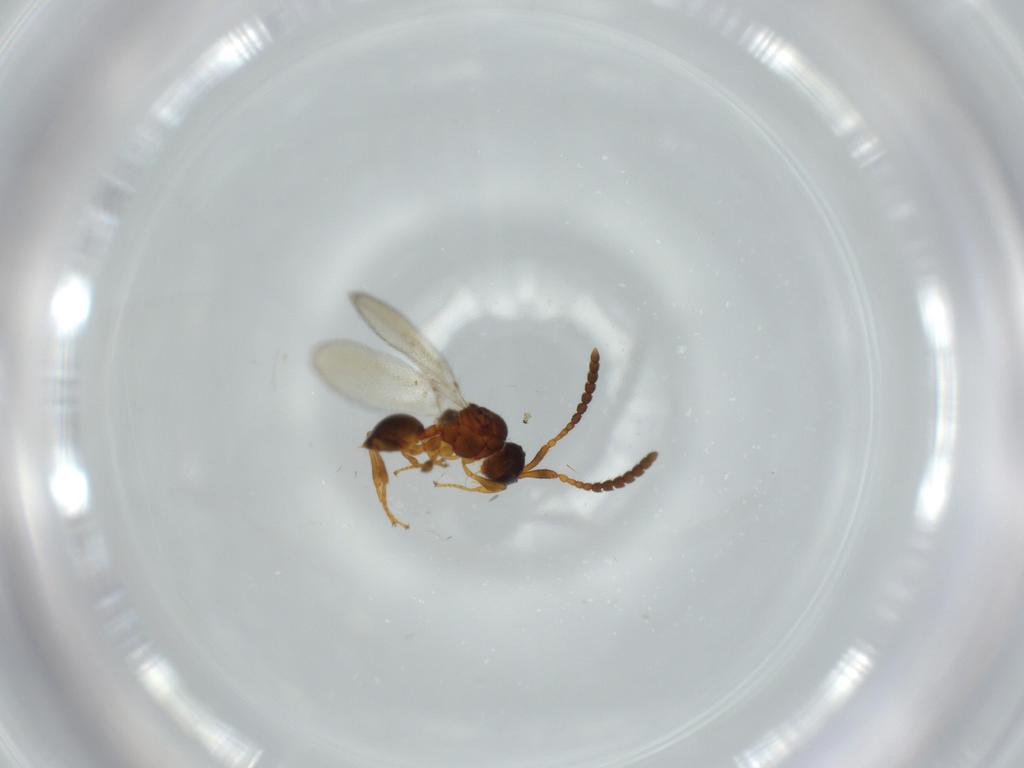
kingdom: Animalia
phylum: Arthropoda
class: Insecta
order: Hymenoptera
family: Diapriidae
